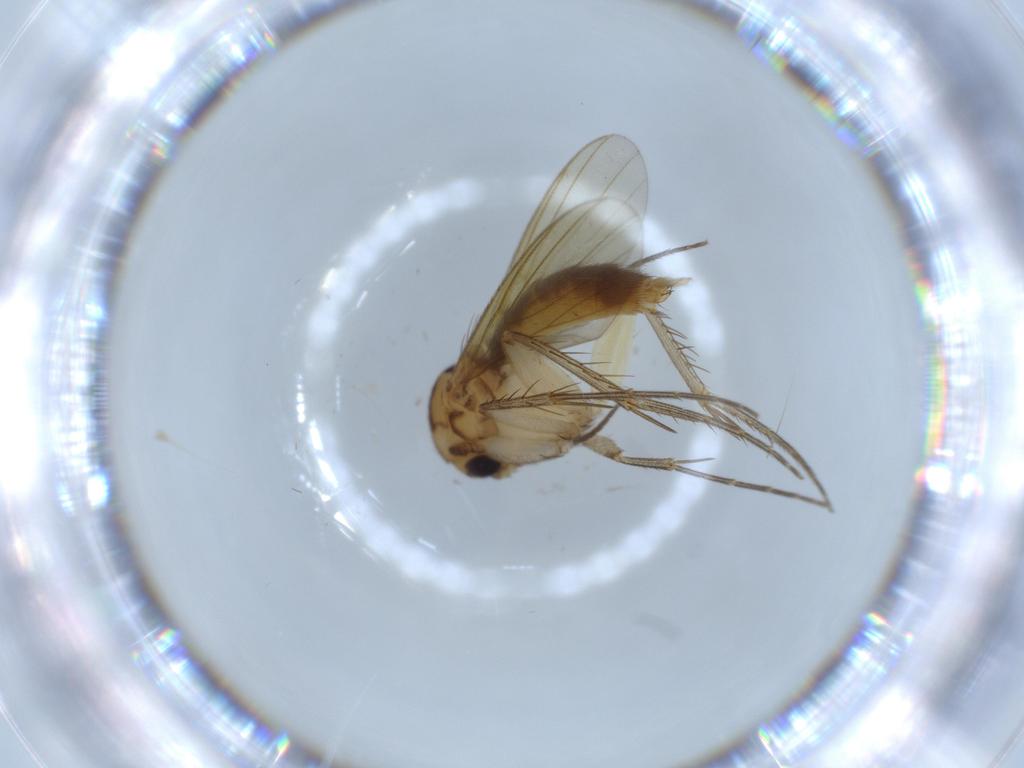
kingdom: Animalia
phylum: Arthropoda
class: Insecta
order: Diptera
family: Mycetophilidae
